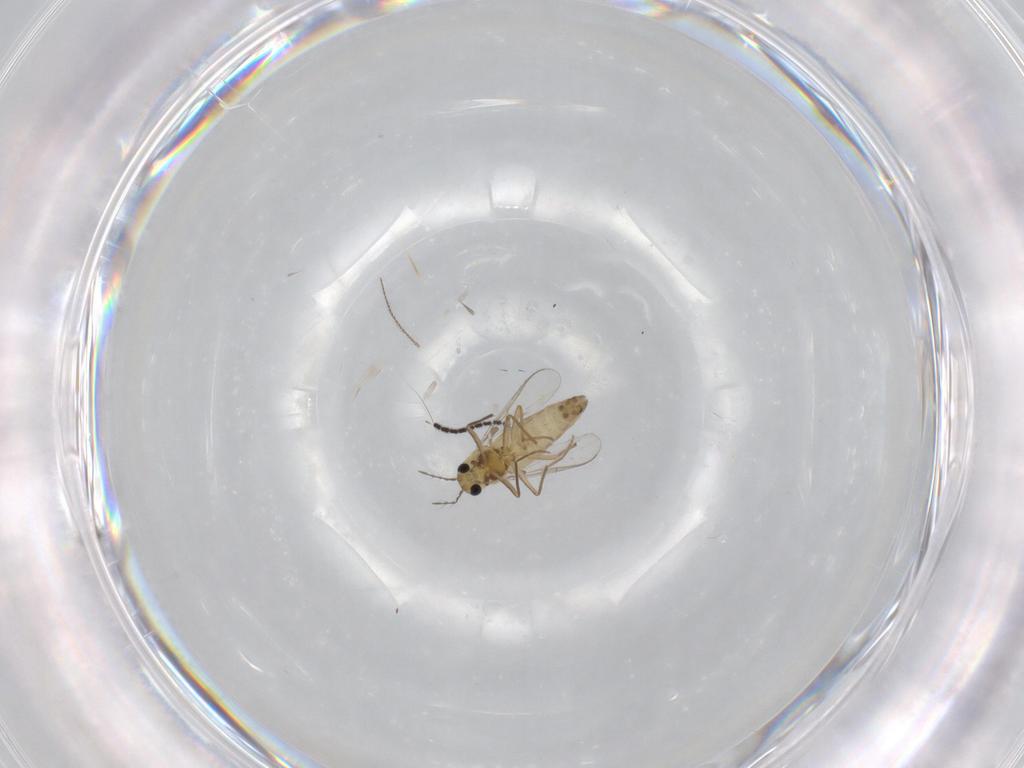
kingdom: Animalia
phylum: Arthropoda
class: Insecta
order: Diptera
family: Chironomidae
